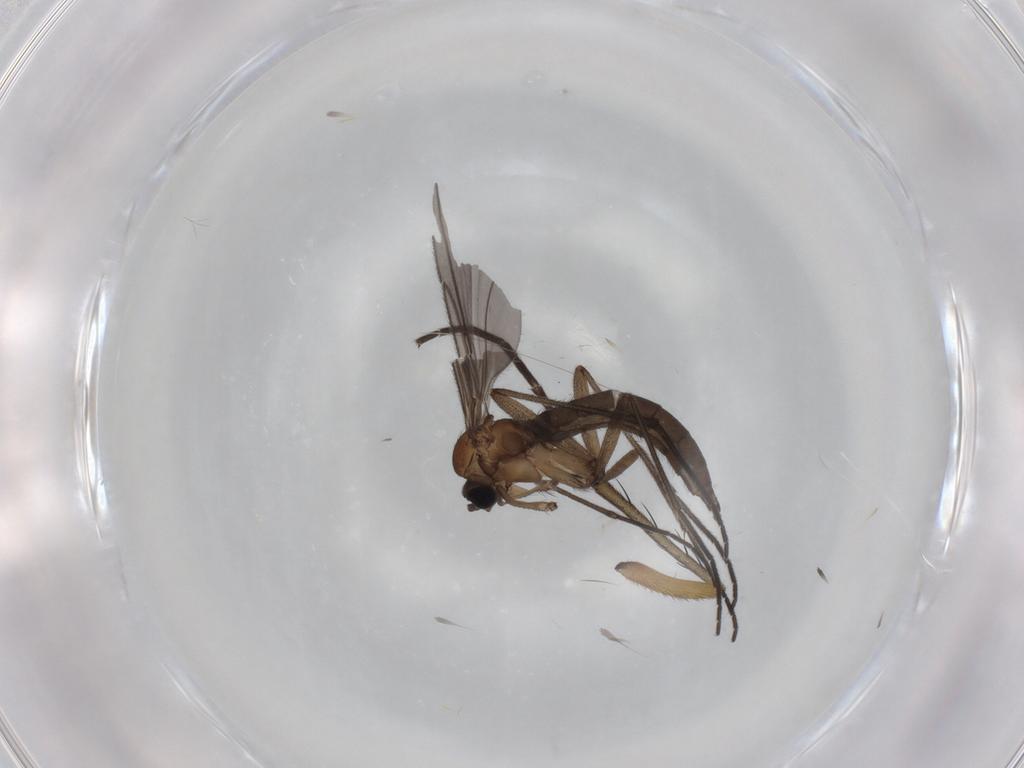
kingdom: Animalia
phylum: Arthropoda
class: Insecta
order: Diptera
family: Sciaridae
